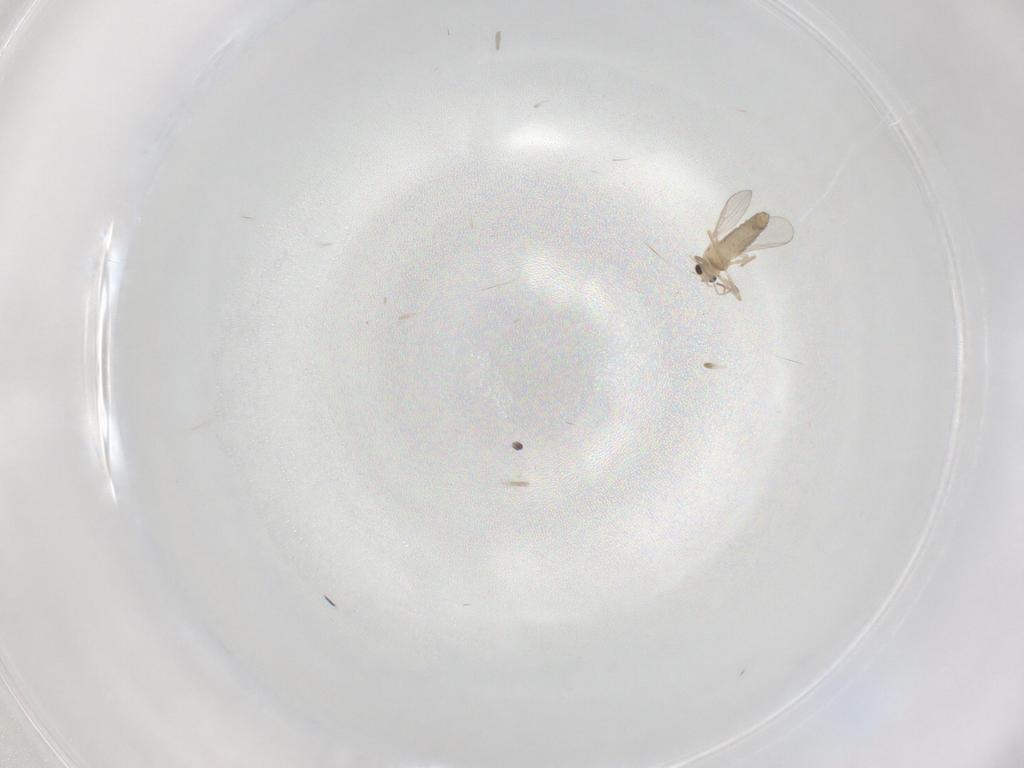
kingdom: Animalia
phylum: Arthropoda
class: Insecta
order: Diptera
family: Chironomidae
